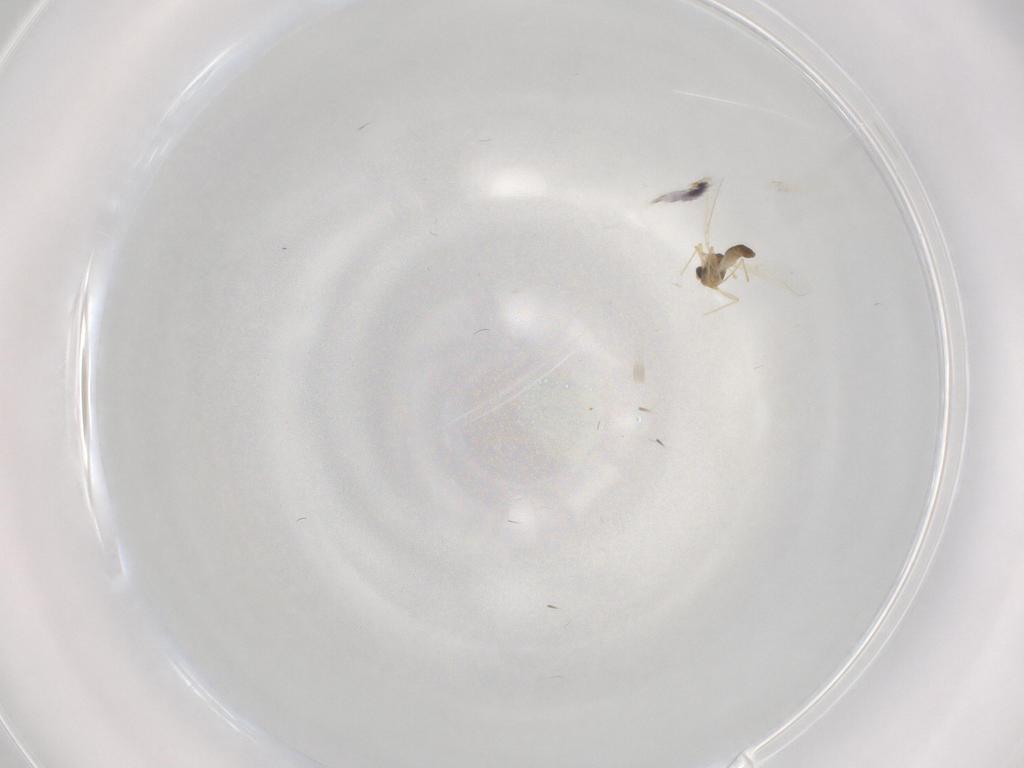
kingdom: Animalia
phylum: Arthropoda
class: Insecta
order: Diptera
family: Chironomidae
